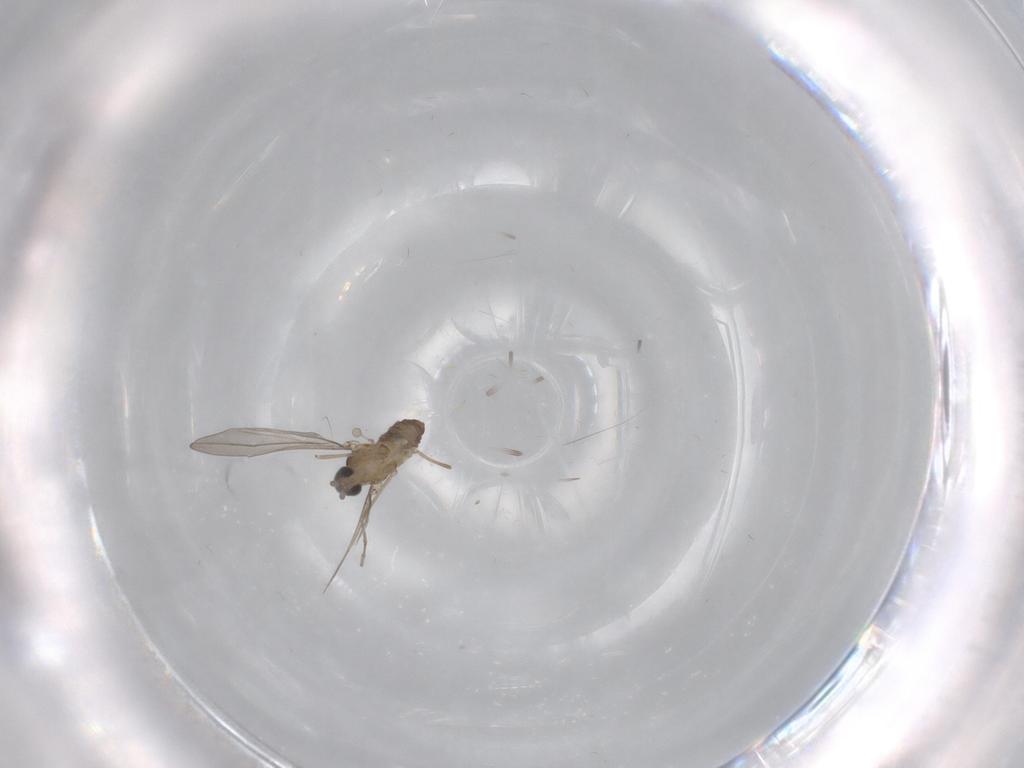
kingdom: Animalia
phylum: Arthropoda
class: Insecta
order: Diptera
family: Cecidomyiidae
